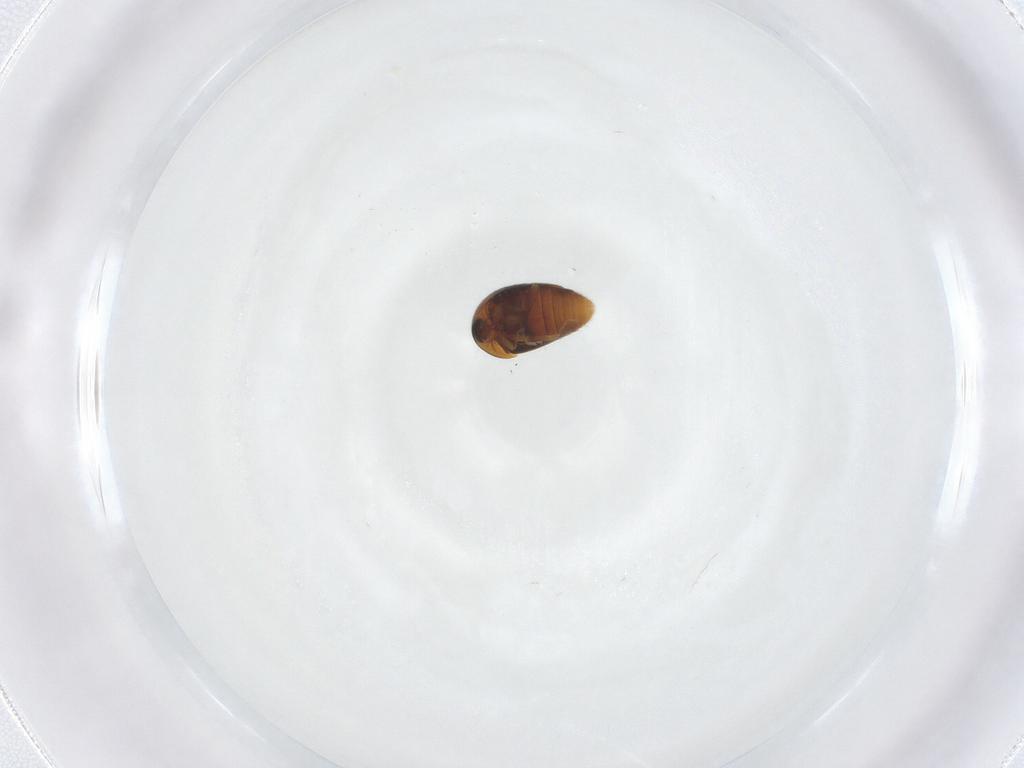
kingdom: Animalia
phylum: Arthropoda
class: Insecta
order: Coleoptera
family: Corylophidae
